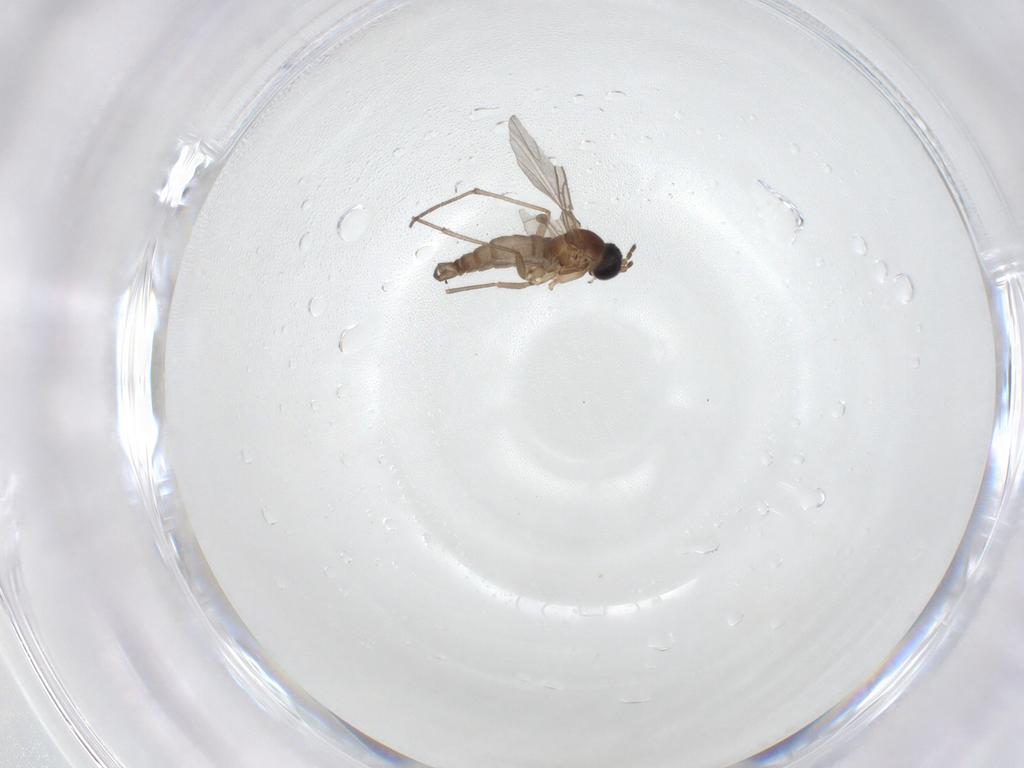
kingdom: Animalia
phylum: Arthropoda
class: Insecta
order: Diptera
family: Sciaridae
